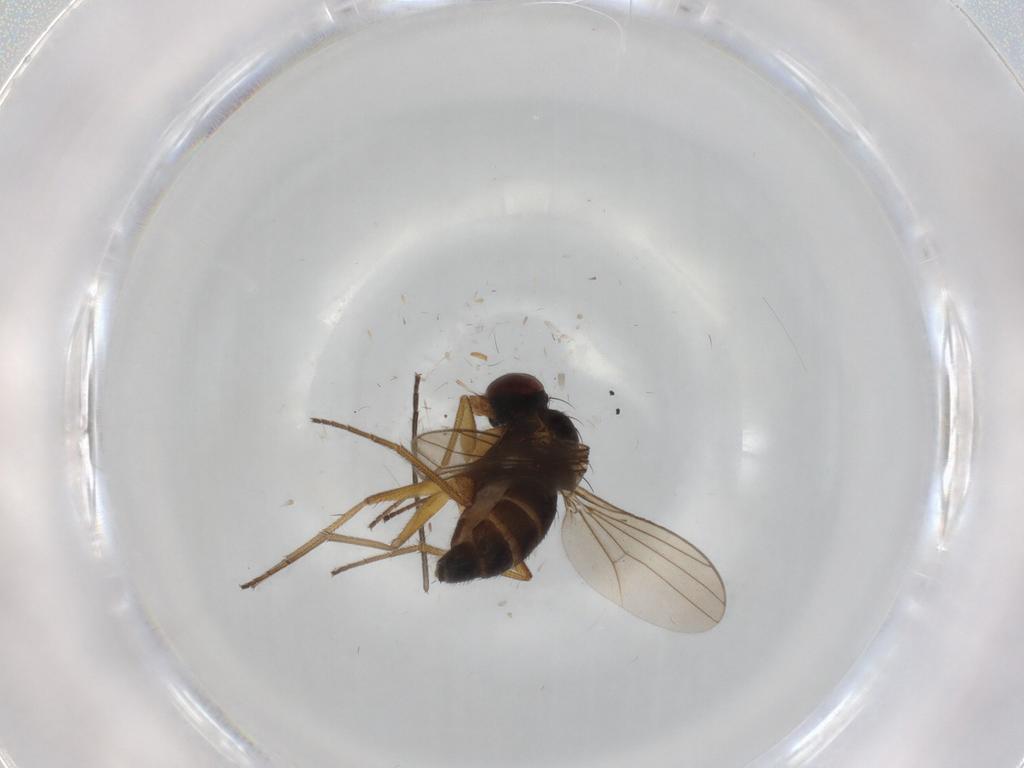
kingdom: Animalia
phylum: Arthropoda
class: Insecta
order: Diptera
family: Dolichopodidae
